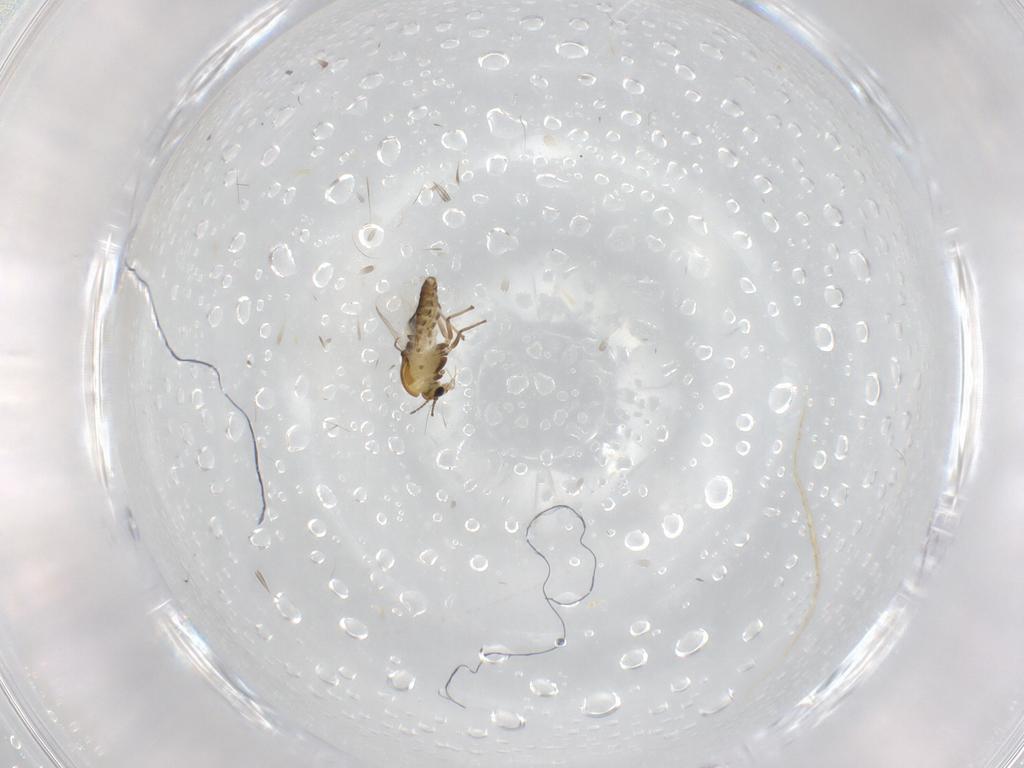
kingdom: Animalia
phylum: Arthropoda
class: Insecta
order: Diptera
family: Chironomidae
